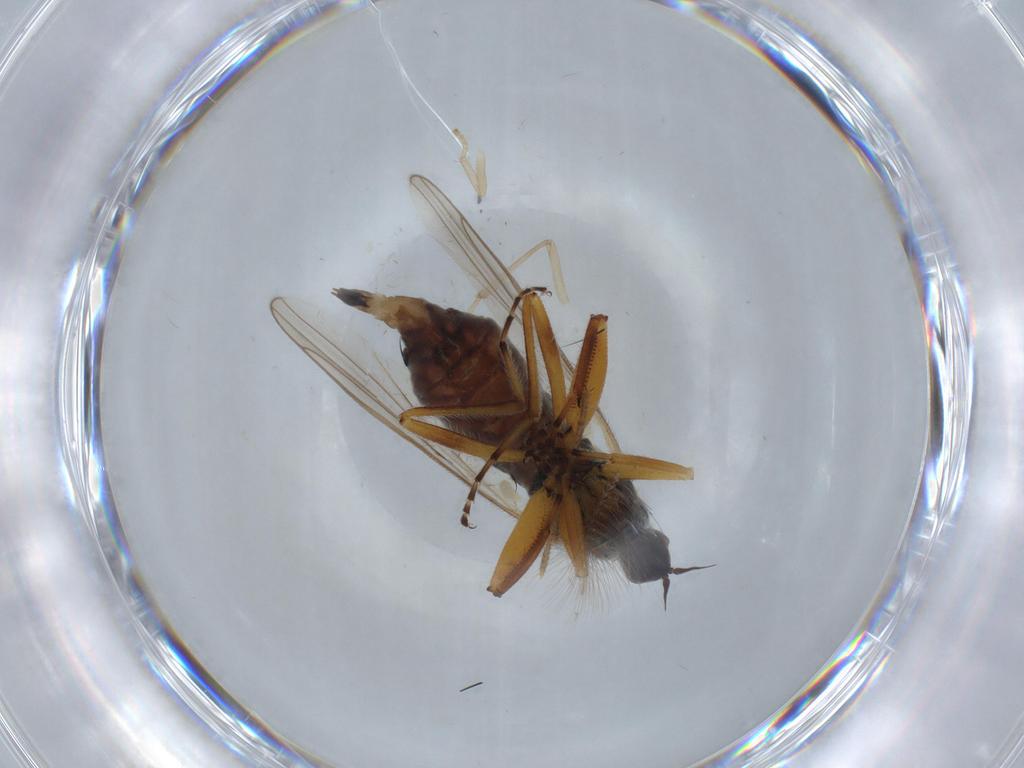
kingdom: Animalia
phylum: Arthropoda
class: Insecta
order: Diptera
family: Hybotidae
